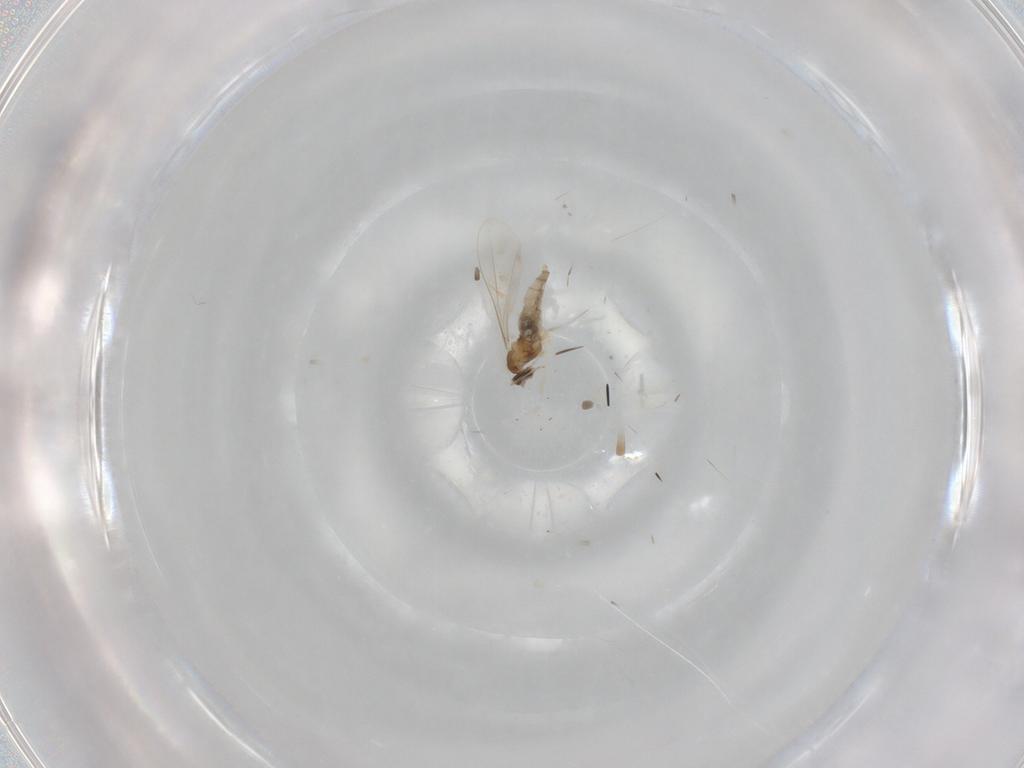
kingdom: Animalia
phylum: Arthropoda
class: Insecta
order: Diptera
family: Cecidomyiidae
